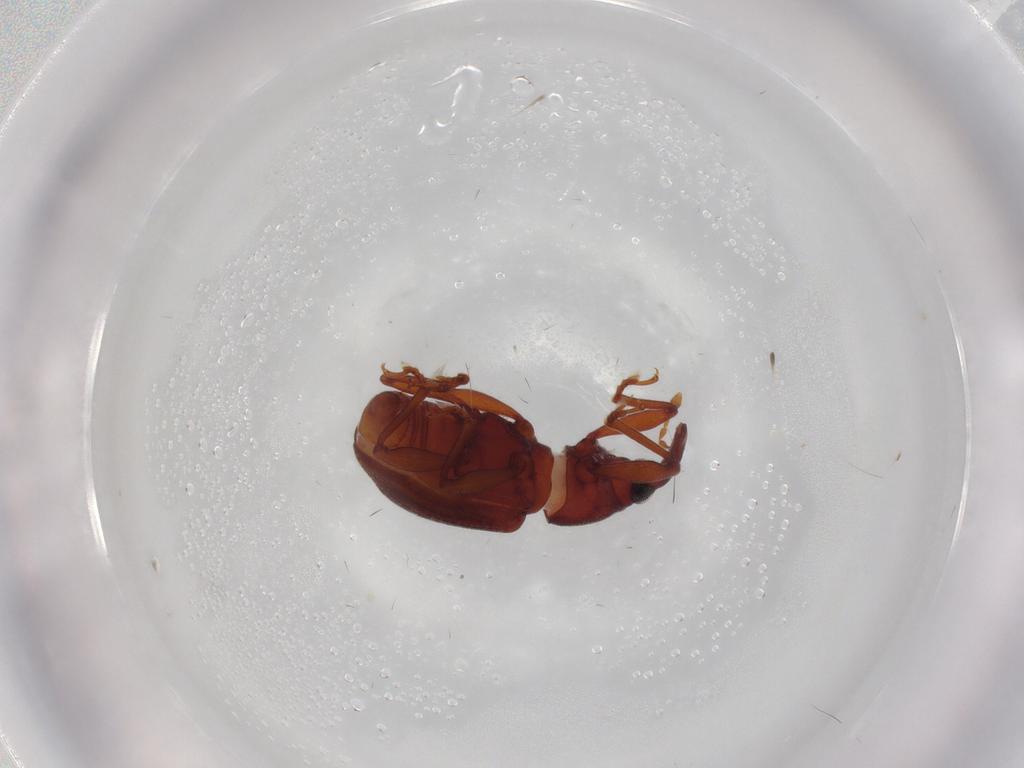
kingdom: Animalia
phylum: Arthropoda
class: Insecta
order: Coleoptera
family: Curculionidae
